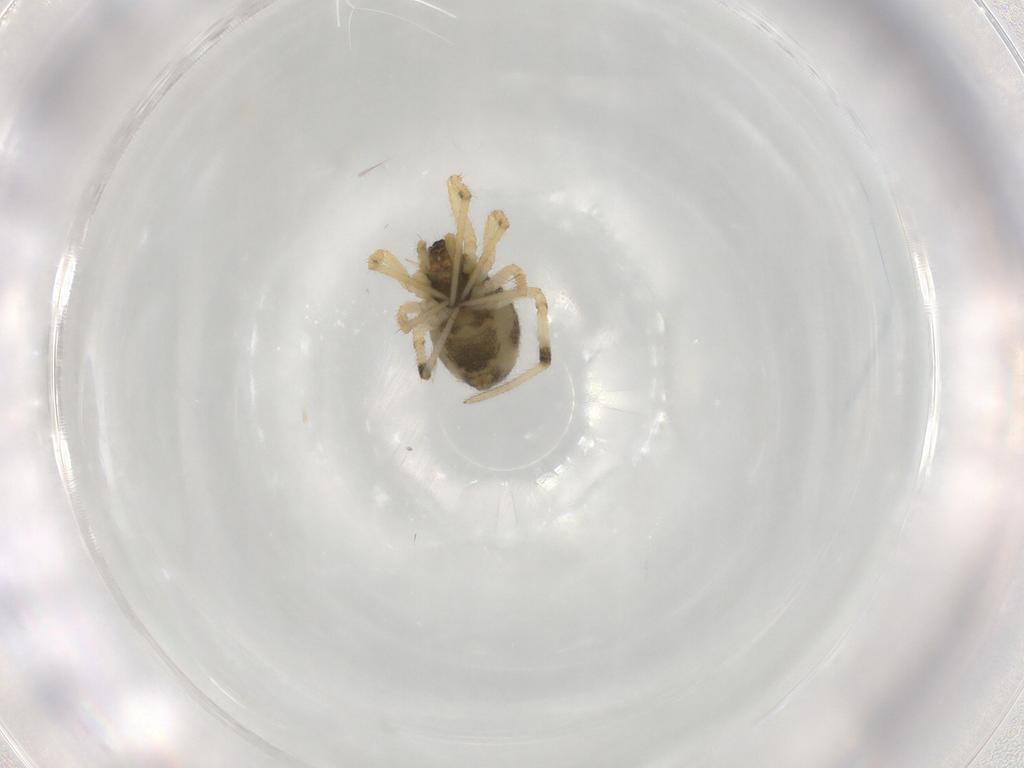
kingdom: Animalia
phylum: Arthropoda
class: Arachnida
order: Araneae
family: Theridiidae
